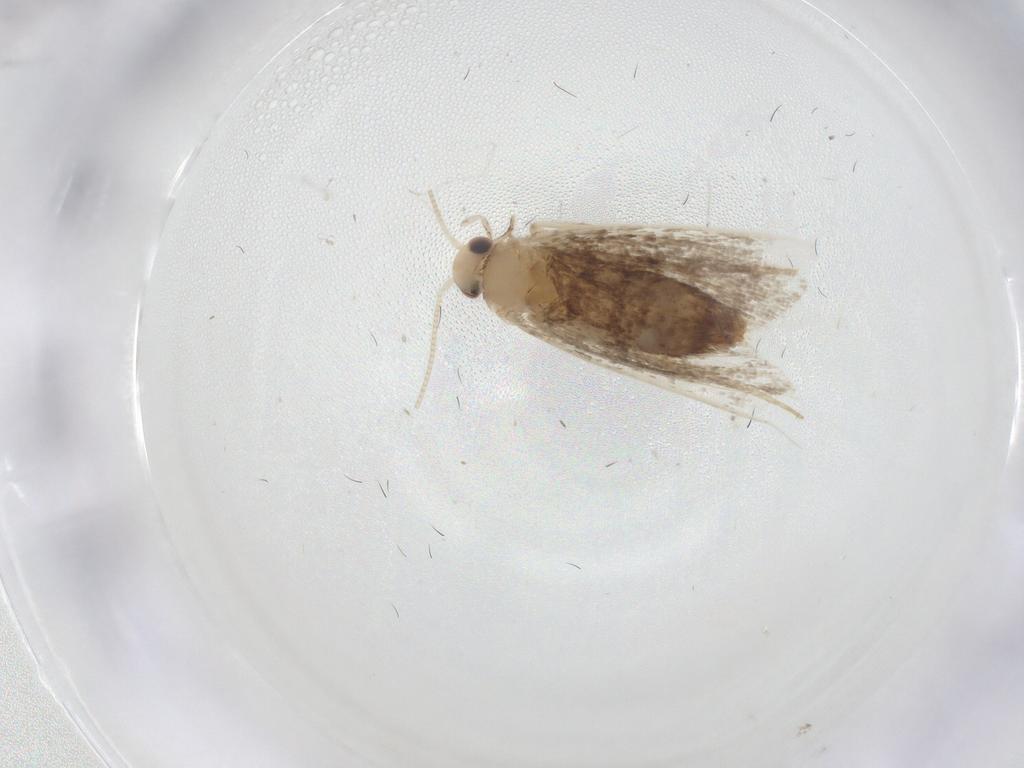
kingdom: Animalia
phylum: Arthropoda
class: Insecta
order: Lepidoptera
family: Dryadaulidae
